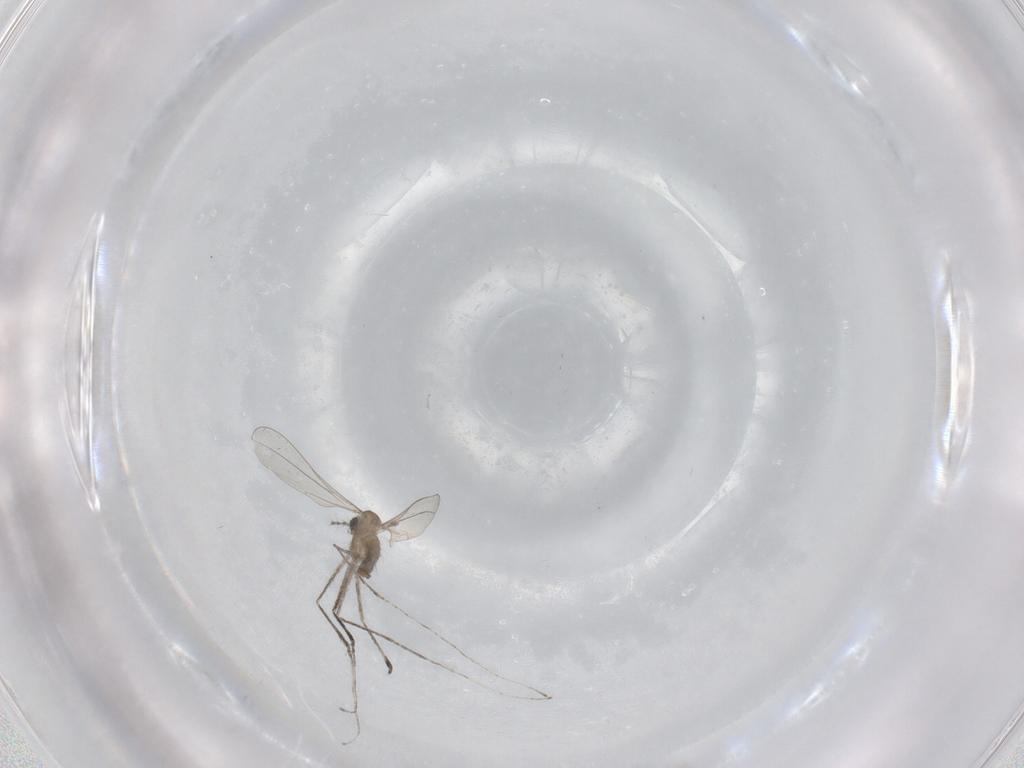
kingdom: Animalia
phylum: Arthropoda
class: Insecta
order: Diptera
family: Cecidomyiidae
